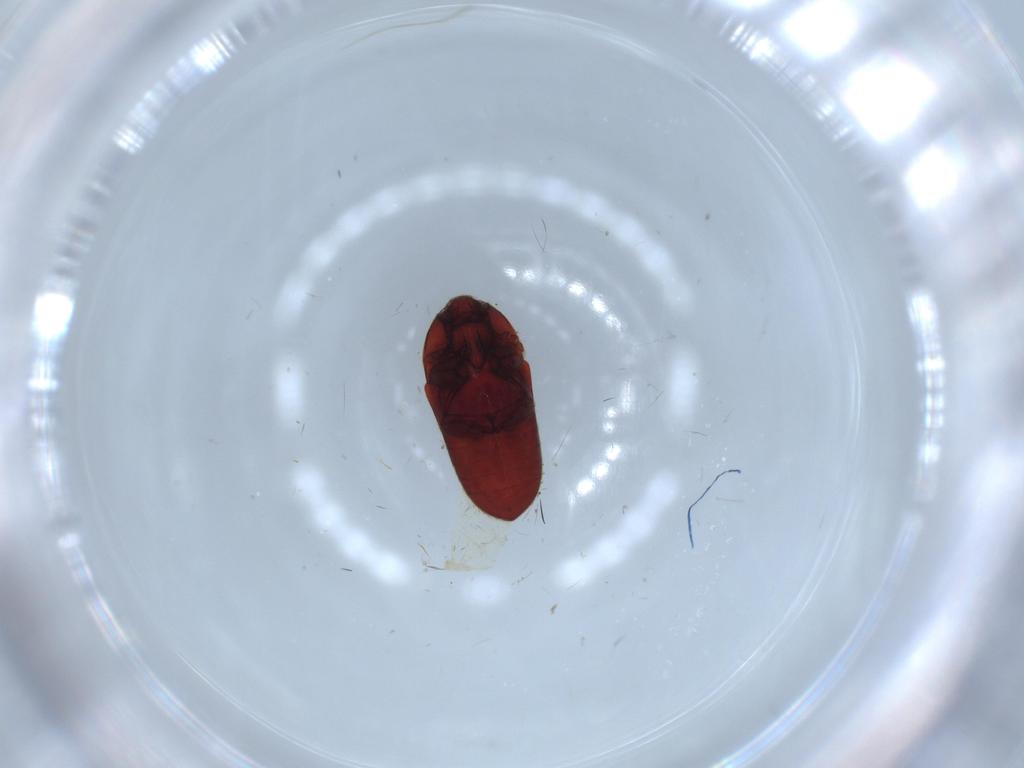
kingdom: Animalia
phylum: Arthropoda
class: Insecta
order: Coleoptera
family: Throscidae
